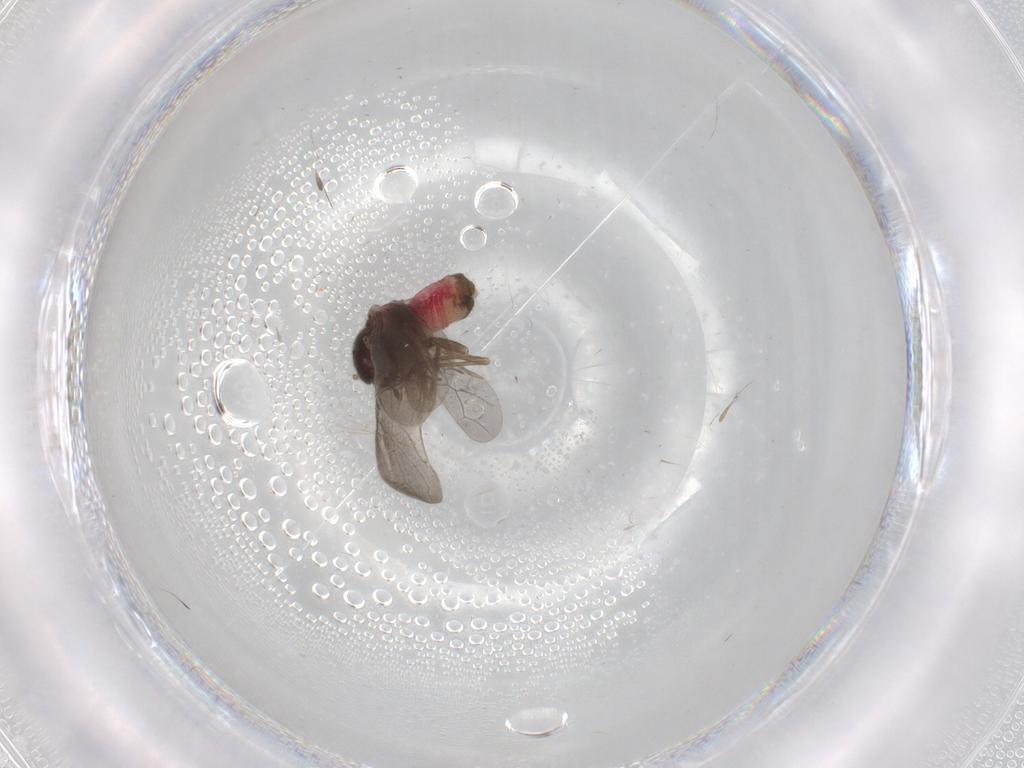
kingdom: Animalia
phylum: Arthropoda
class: Insecta
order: Psocodea
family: Archipsocidae
